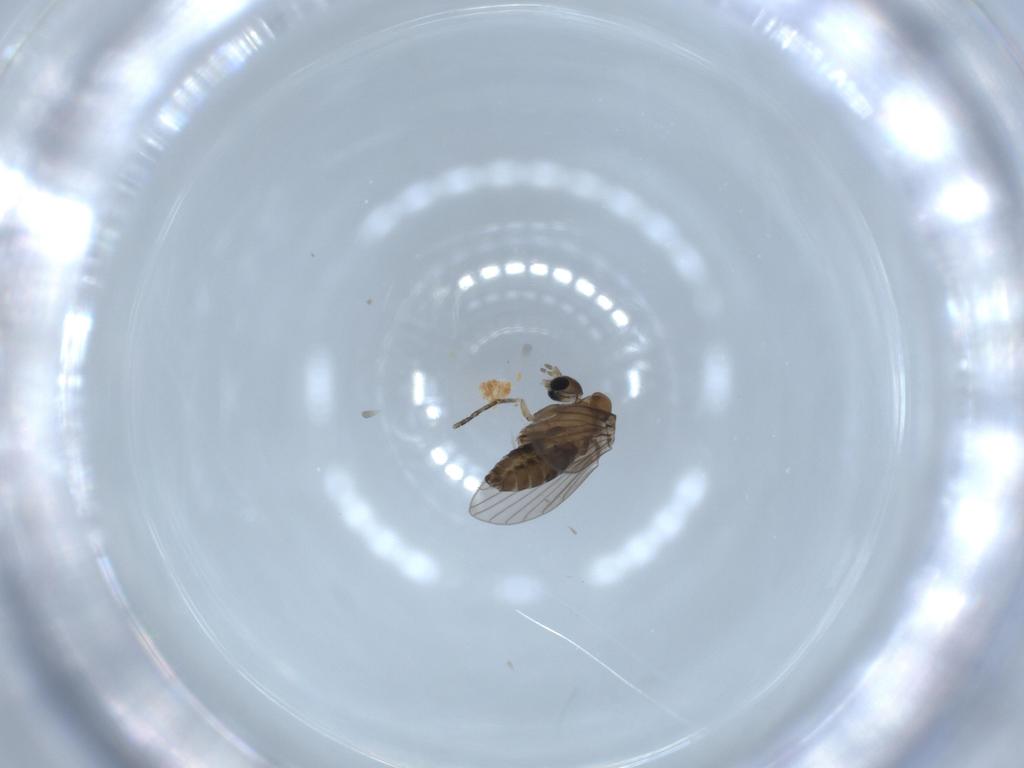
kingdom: Animalia
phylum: Arthropoda
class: Insecta
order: Diptera
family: Psychodidae
